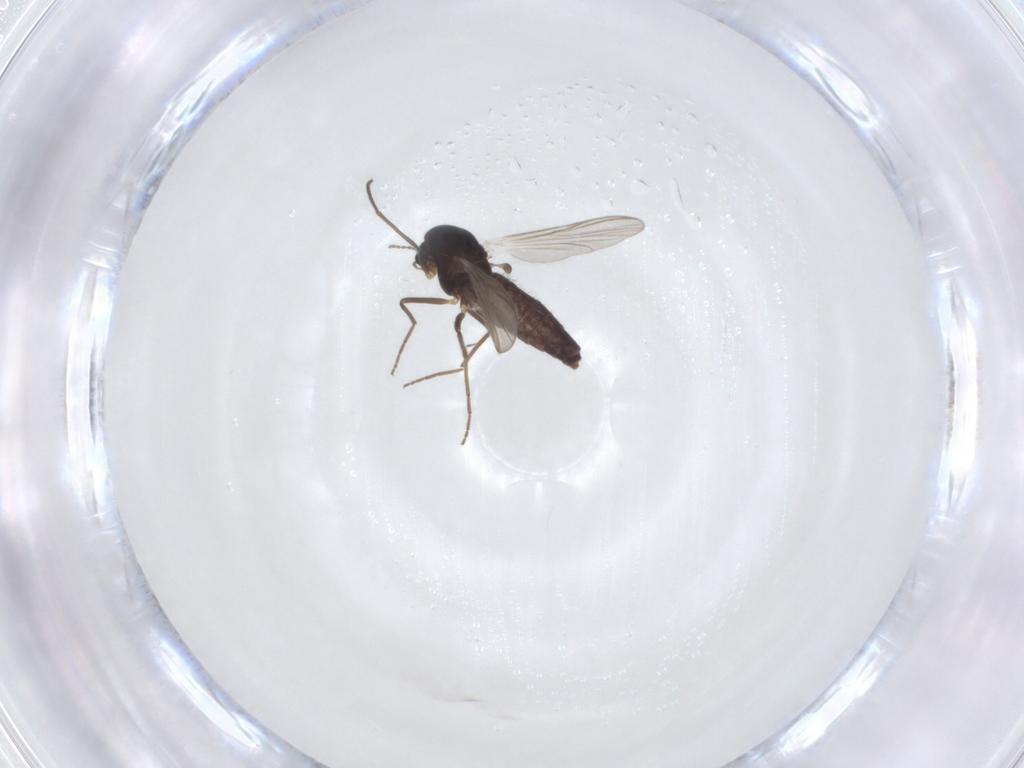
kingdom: Animalia
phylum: Arthropoda
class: Insecta
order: Diptera
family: Chironomidae
